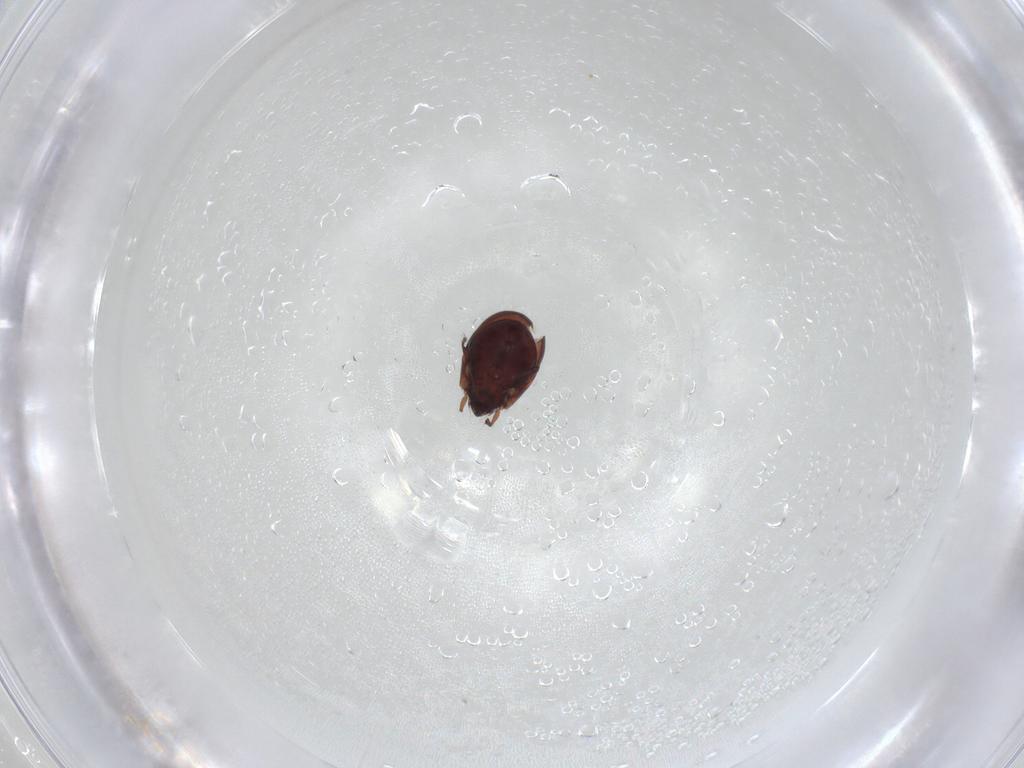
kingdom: Animalia
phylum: Arthropoda
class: Arachnida
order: Sarcoptiformes
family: Humerobatidae
